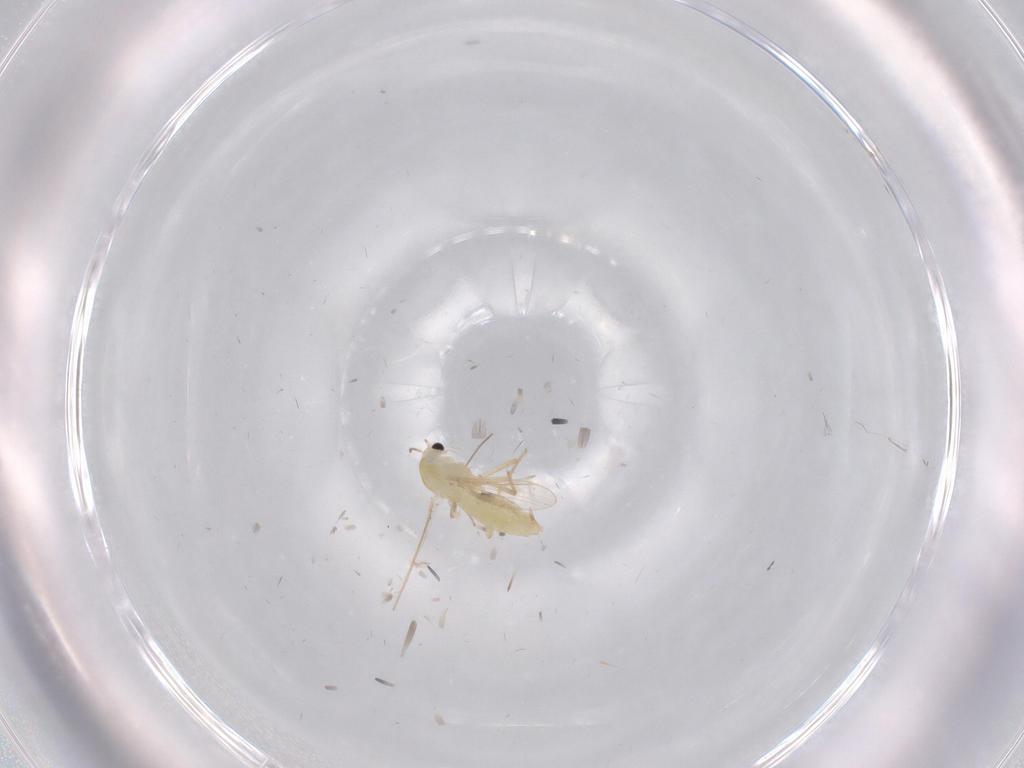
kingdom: Animalia
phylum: Arthropoda
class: Insecta
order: Diptera
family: Chironomidae
